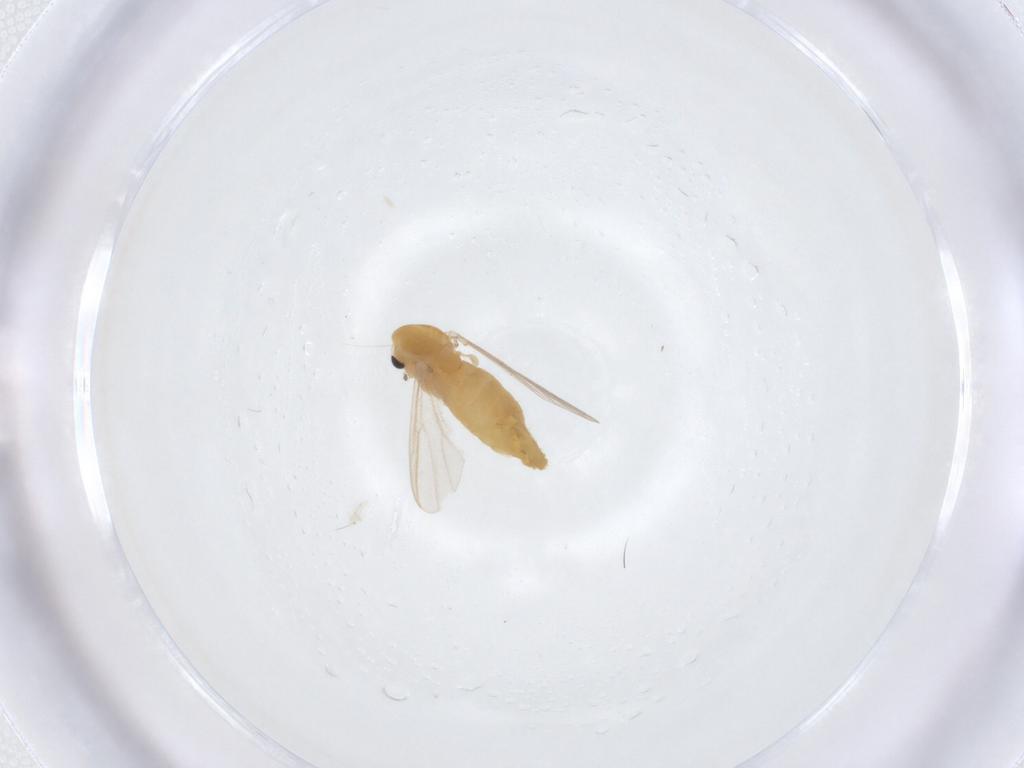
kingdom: Animalia
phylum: Arthropoda
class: Insecta
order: Diptera
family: Chironomidae
